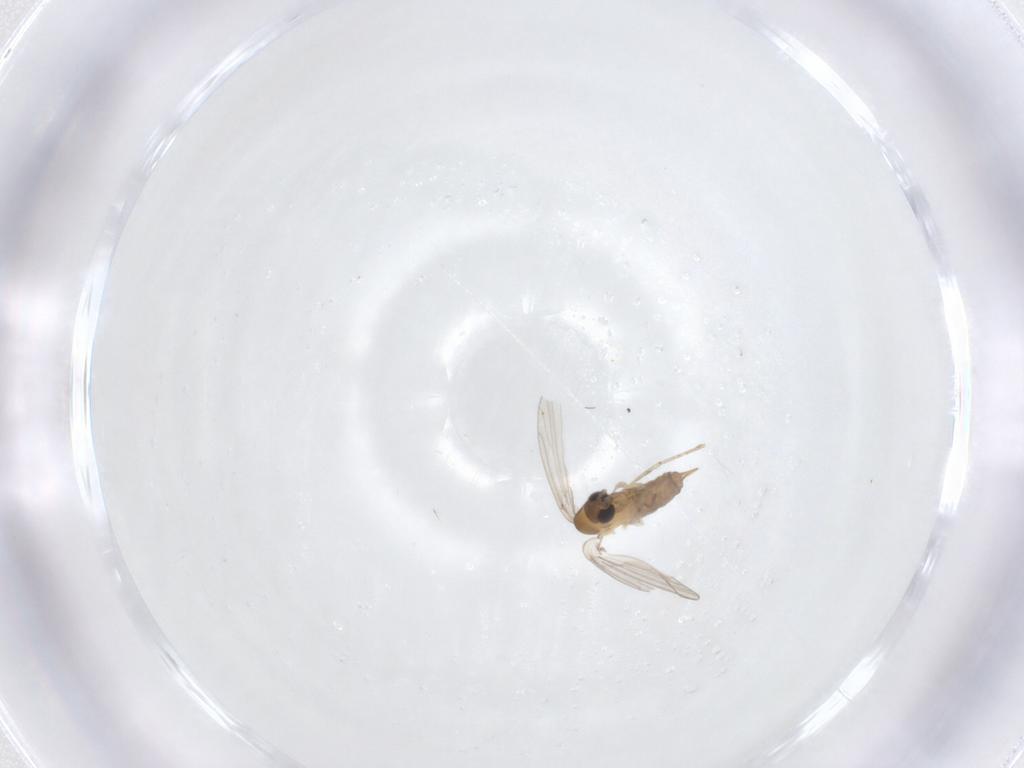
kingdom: Animalia
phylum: Arthropoda
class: Insecta
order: Diptera
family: Psychodidae
